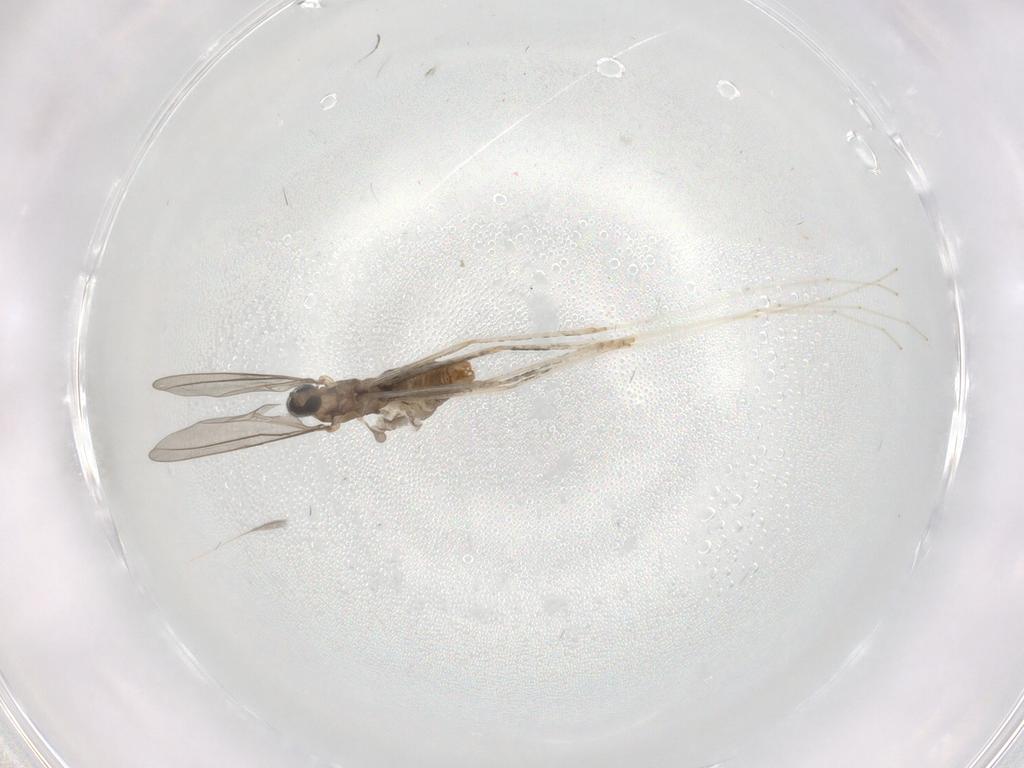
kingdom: Animalia
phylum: Arthropoda
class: Insecta
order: Diptera
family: Cecidomyiidae
